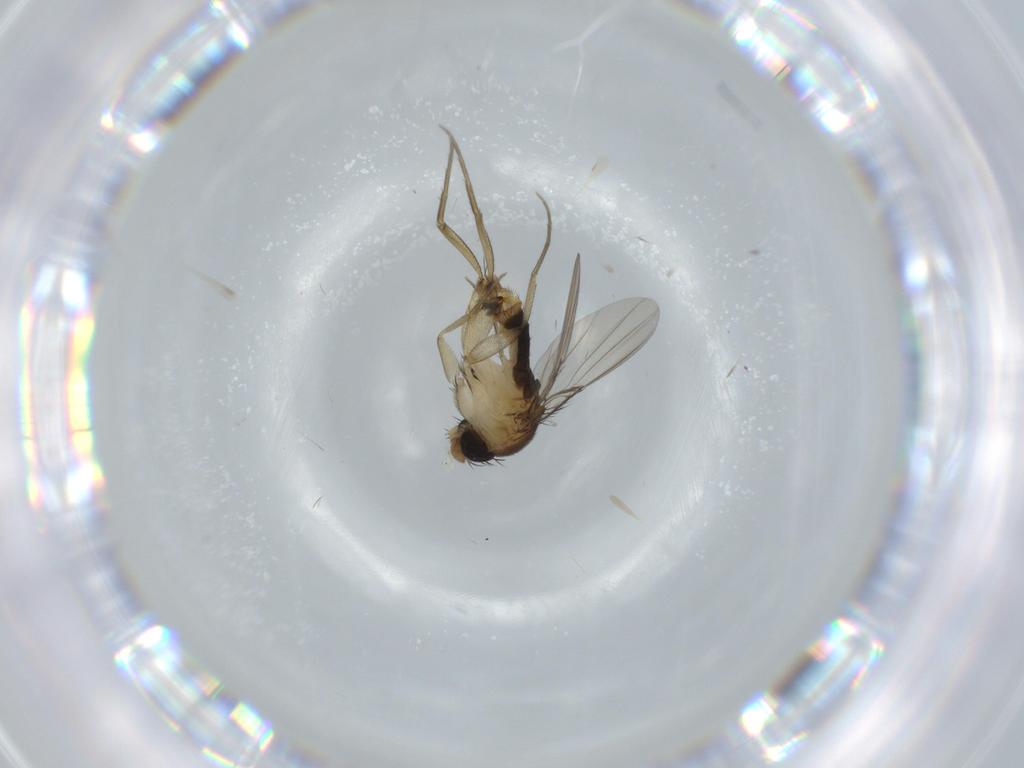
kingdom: Animalia
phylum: Arthropoda
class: Insecta
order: Diptera
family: Phoridae
